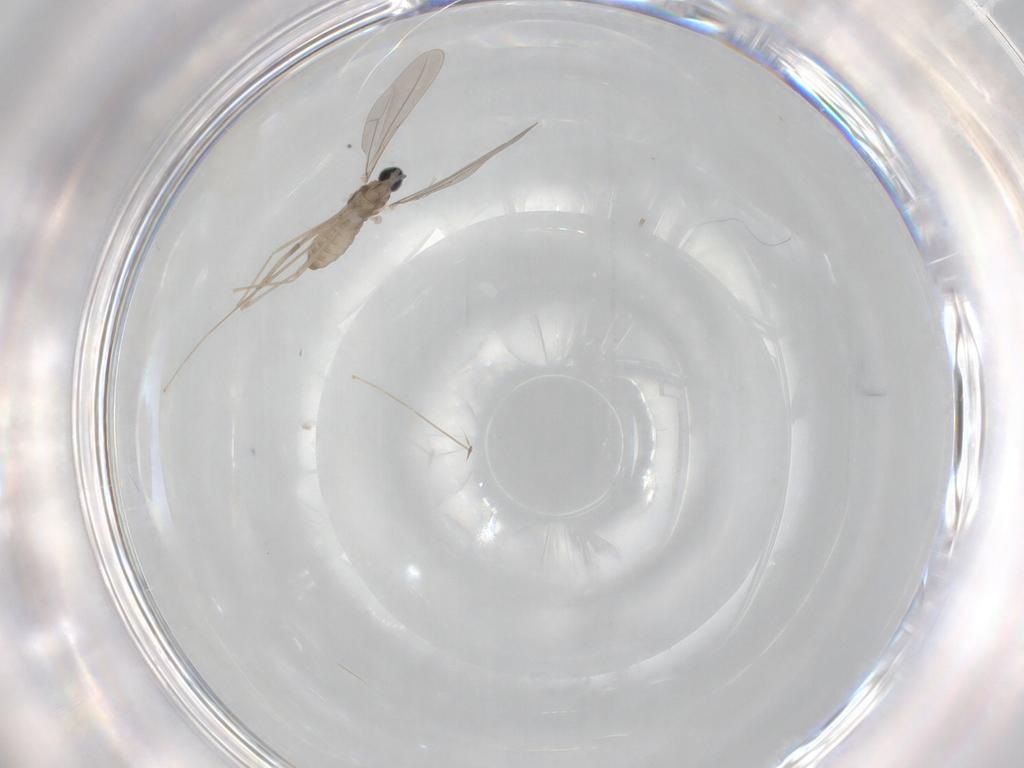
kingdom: Animalia
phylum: Arthropoda
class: Insecta
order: Diptera
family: Cecidomyiidae
